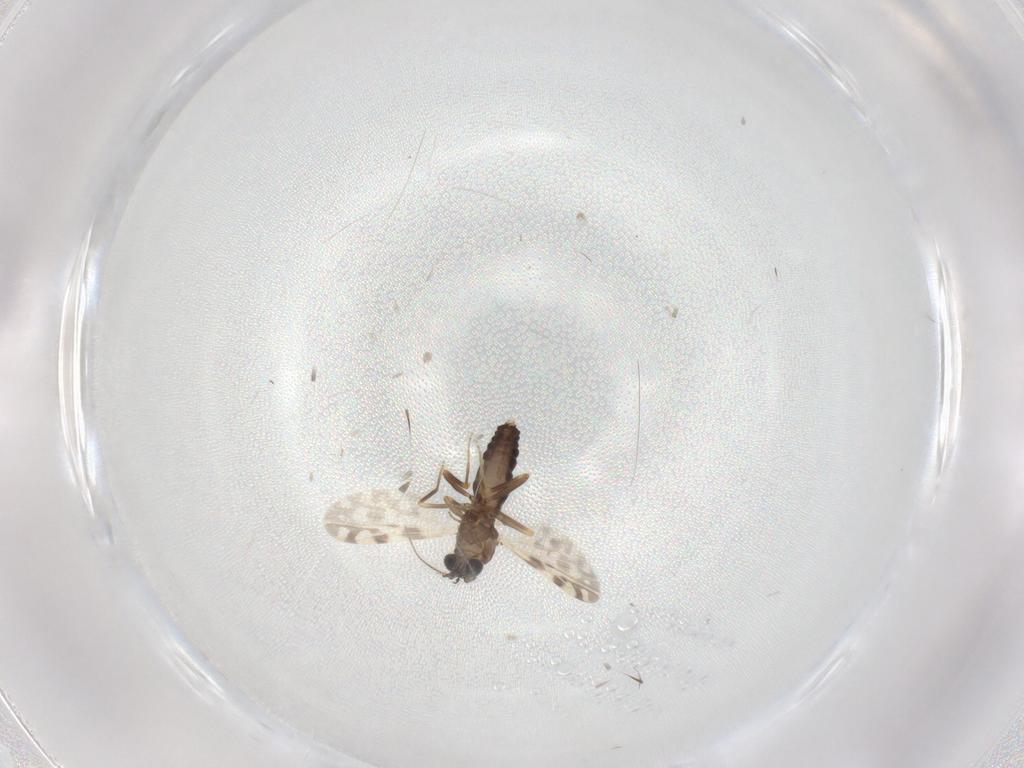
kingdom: Animalia
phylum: Arthropoda
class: Insecta
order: Diptera
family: Ceratopogonidae
